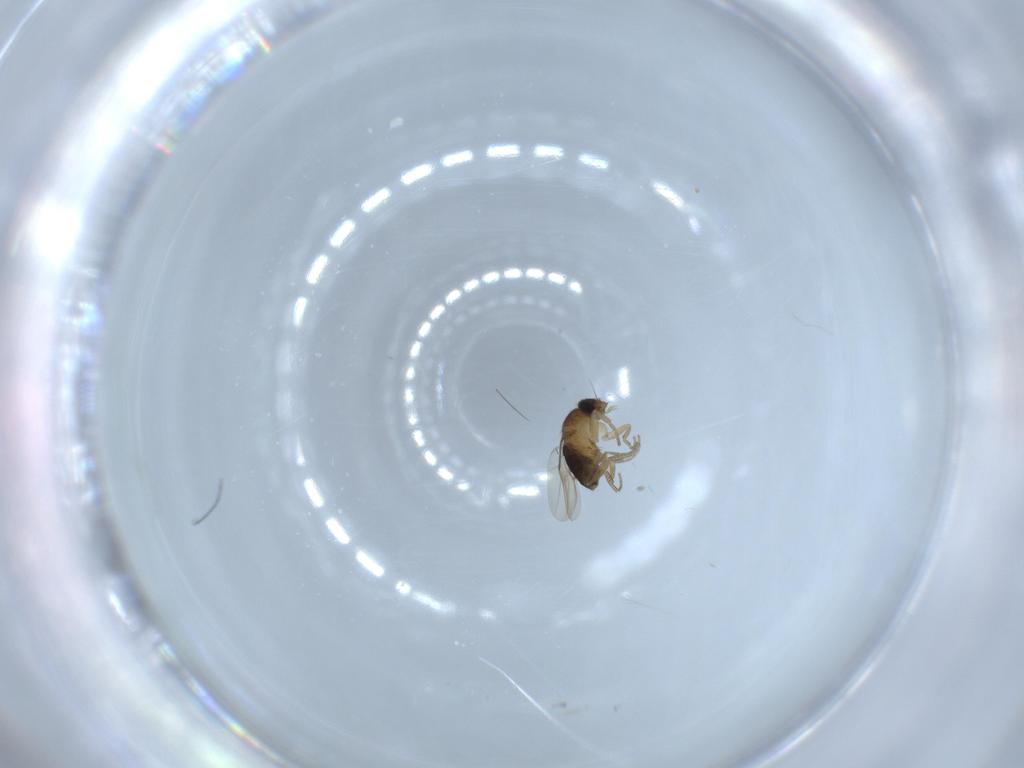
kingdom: Animalia
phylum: Arthropoda
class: Insecta
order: Diptera
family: Phoridae
